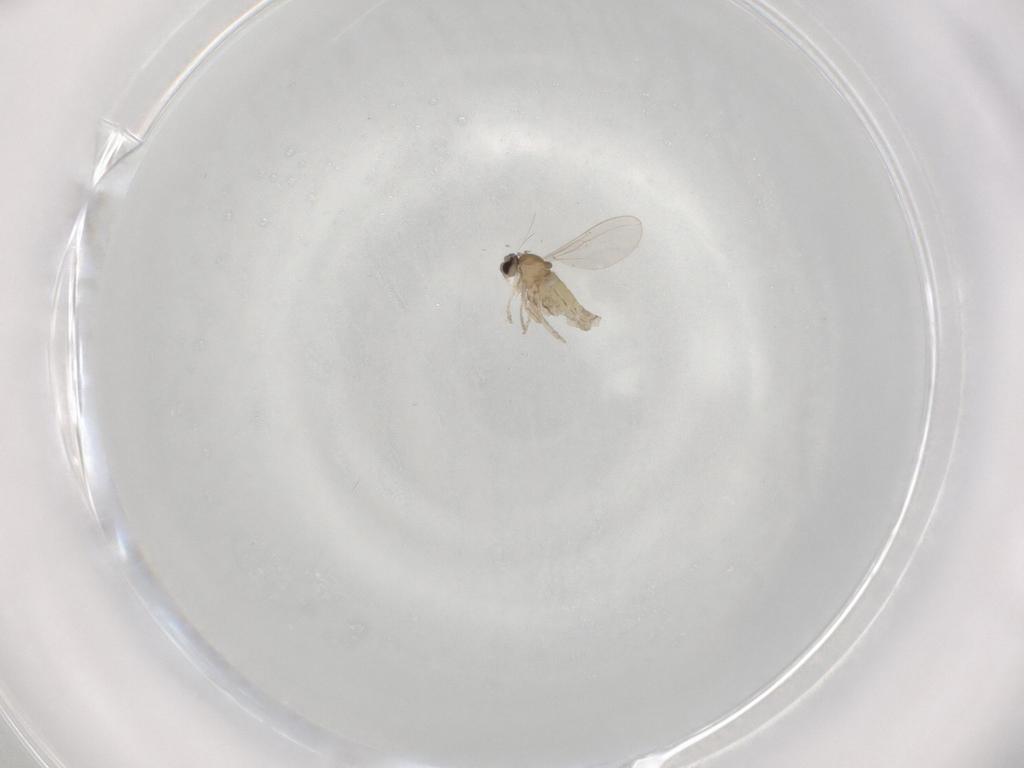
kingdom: Animalia
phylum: Arthropoda
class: Insecta
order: Diptera
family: Cecidomyiidae
